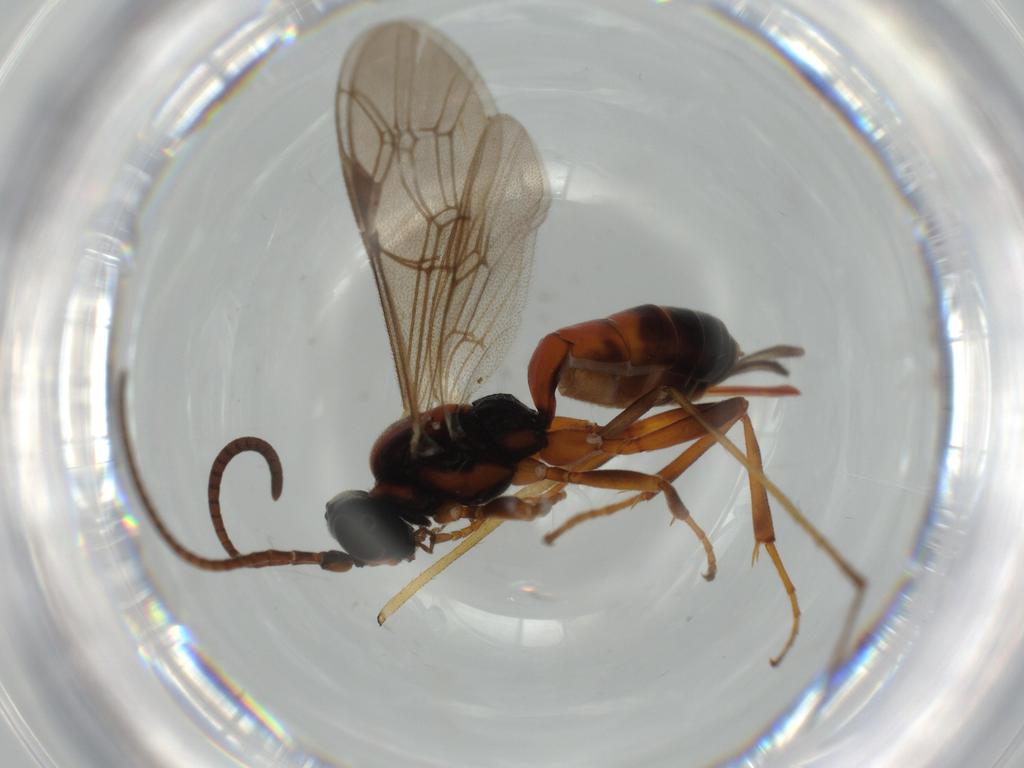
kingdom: Animalia
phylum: Arthropoda
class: Insecta
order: Hymenoptera
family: Ichneumonidae
